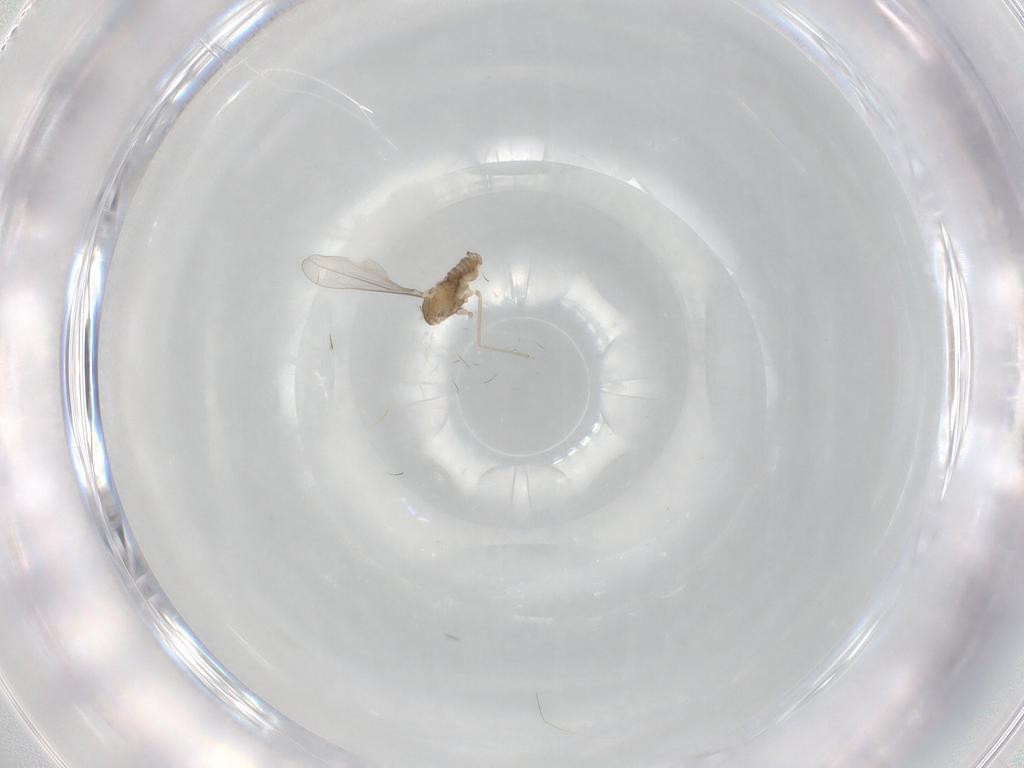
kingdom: Animalia
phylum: Arthropoda
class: Insecta
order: Diptera
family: Cecidomyiidae
